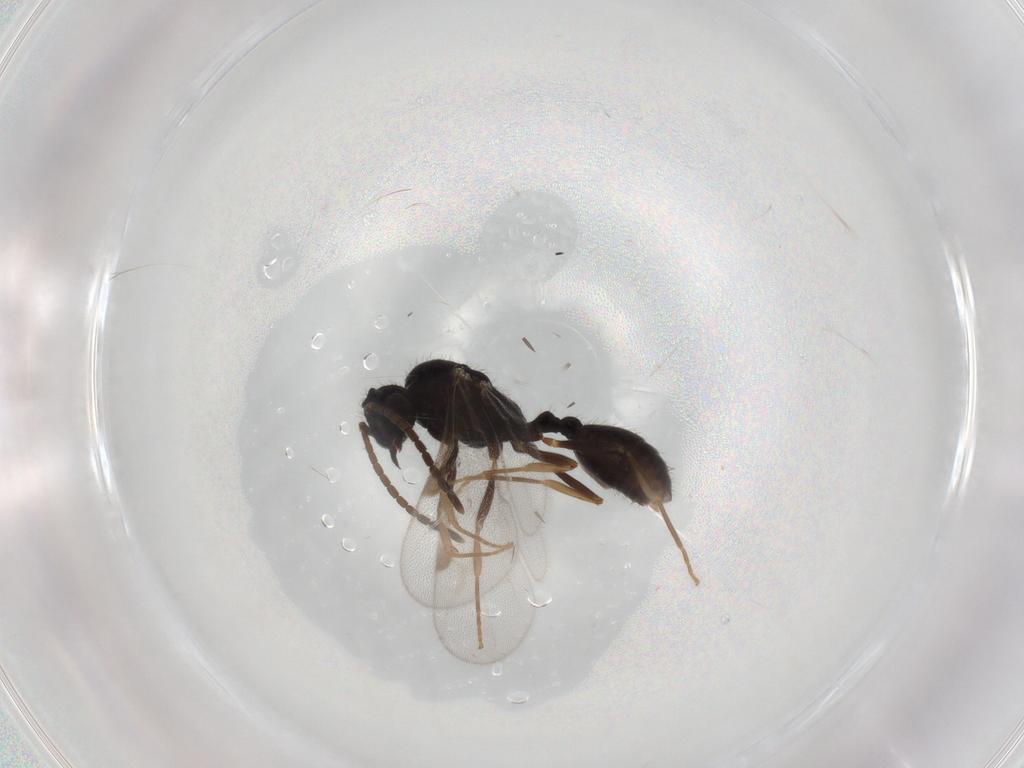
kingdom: Animalia
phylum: Arthropoda
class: Insecta
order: Hymenoptera
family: Formicidae
